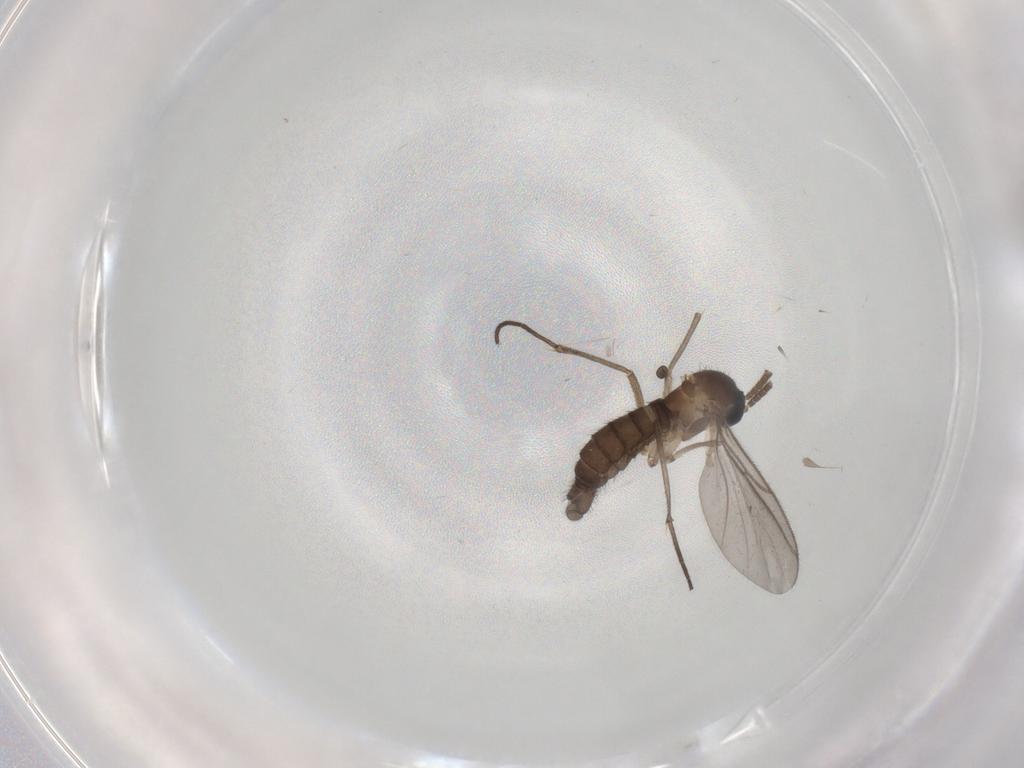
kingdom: Animalia
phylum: Arthropoda
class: Insecta
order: Diptera
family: Psychodidae
